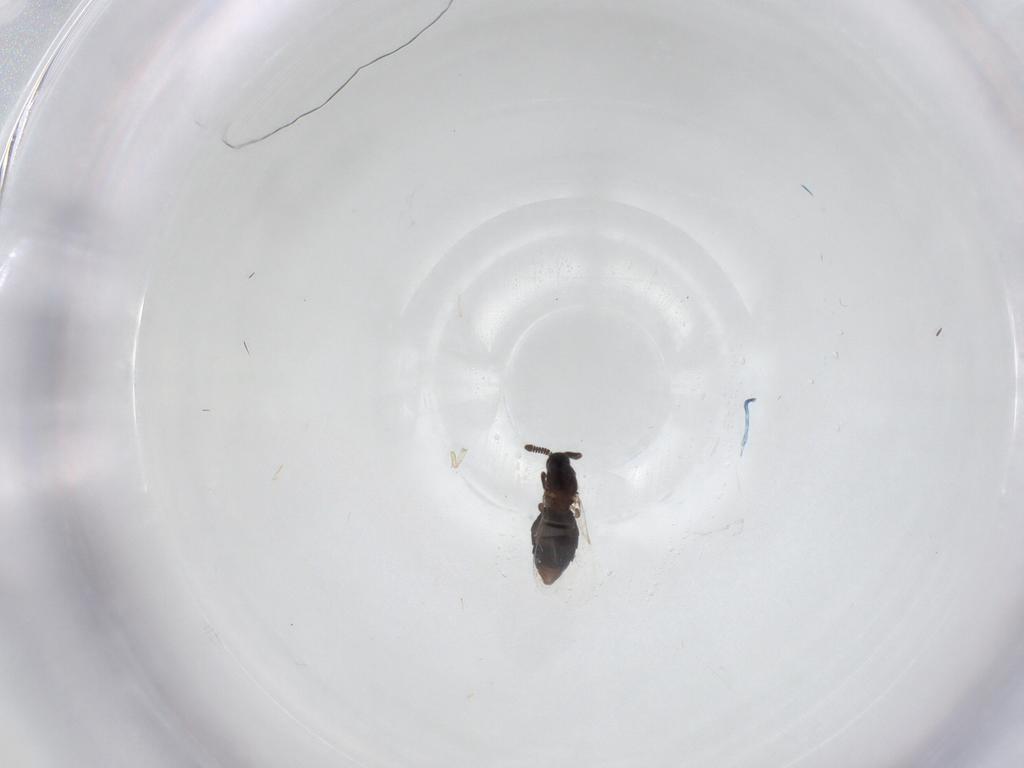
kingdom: Animalia
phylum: Arthropoda
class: Insecta
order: Diptera
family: Scatopsidae
